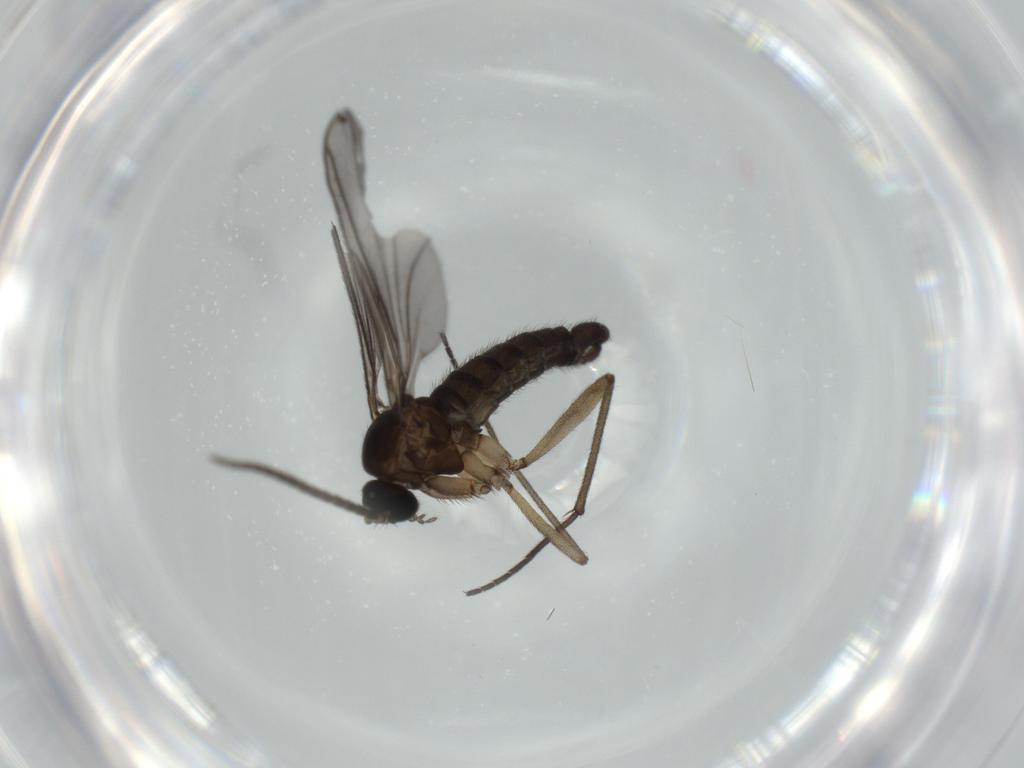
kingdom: Animalia
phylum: Arthropoda
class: Insecta
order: Diptera
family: Sciaridae
